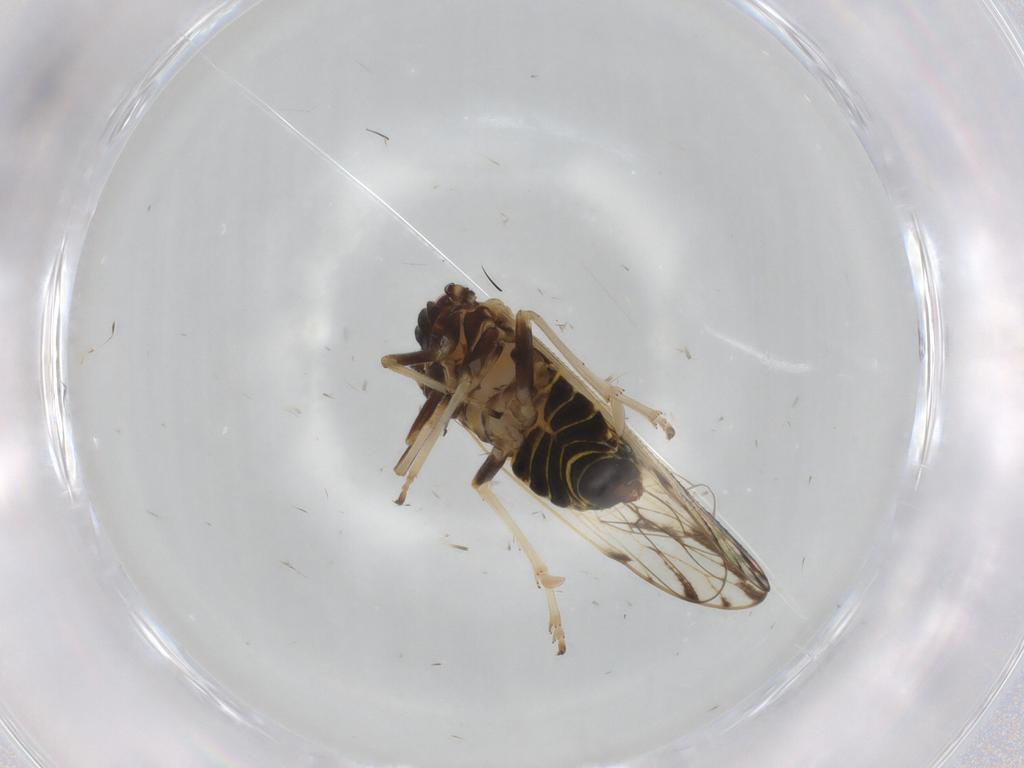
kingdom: Animalia
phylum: Arthropoda
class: Insecta
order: Hemiptera
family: Delphacidae
